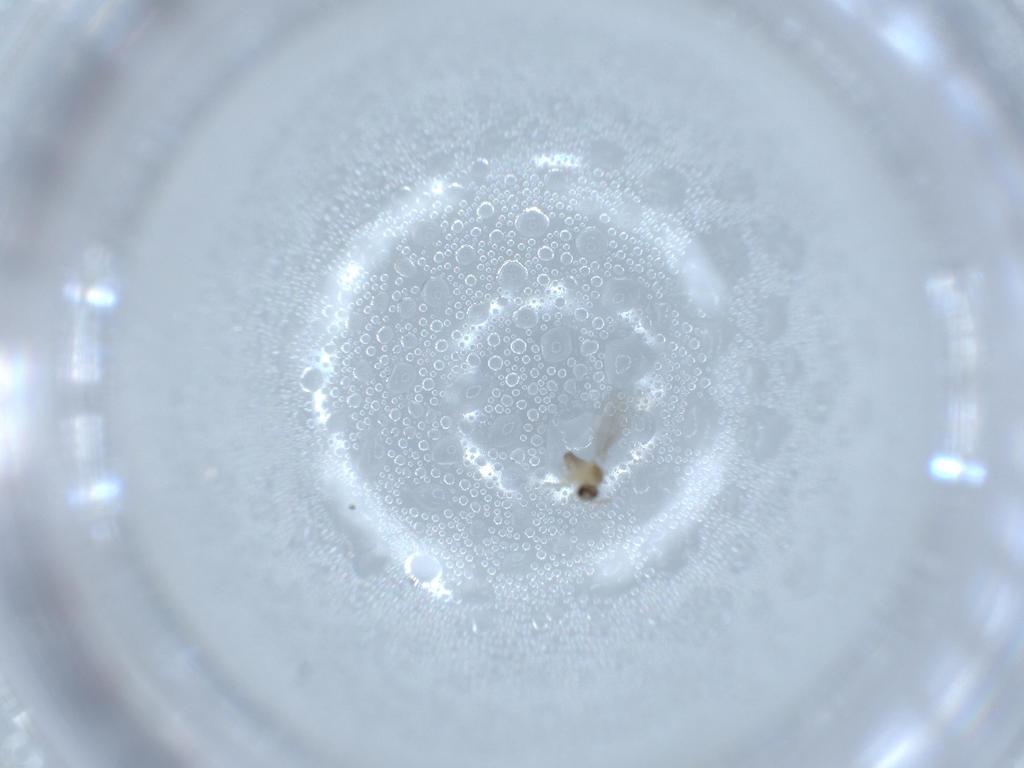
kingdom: Animalia
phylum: Arthropoda
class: Insecta
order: Diptera
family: Cecidomyiidae
